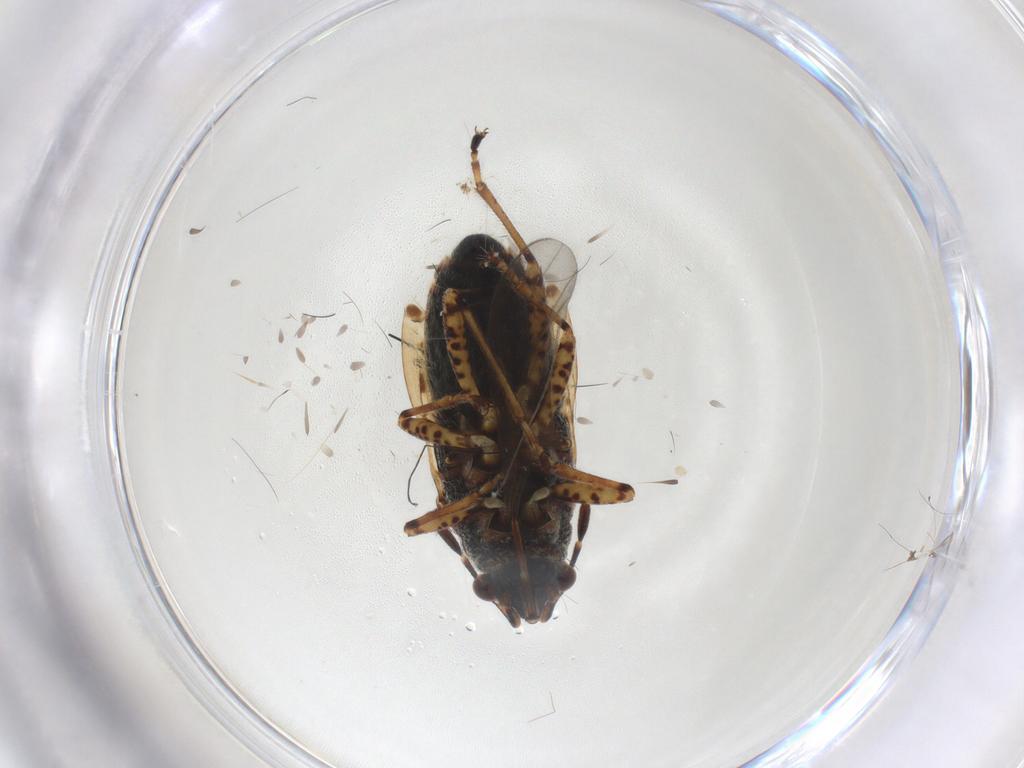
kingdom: Animalia
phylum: Arthropoda
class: Insecta
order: Hemiptera
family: Lygaeidae
